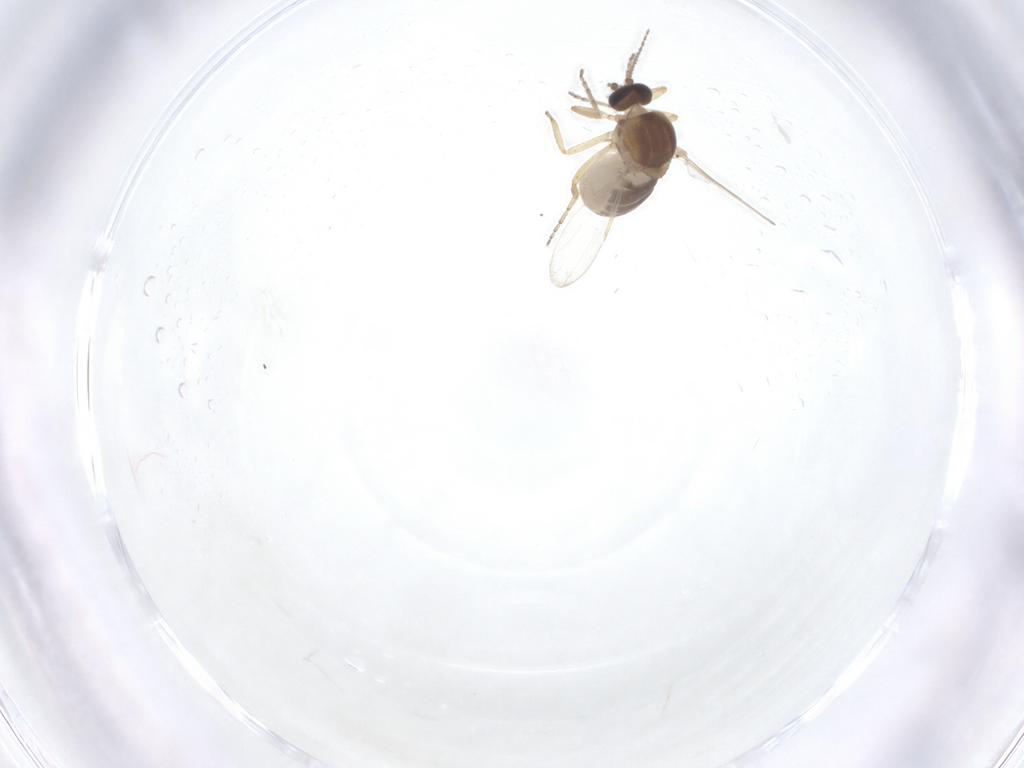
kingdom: Animalia
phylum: Arthropoda
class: Insecta
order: Diptera
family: Ceratopogonidae
